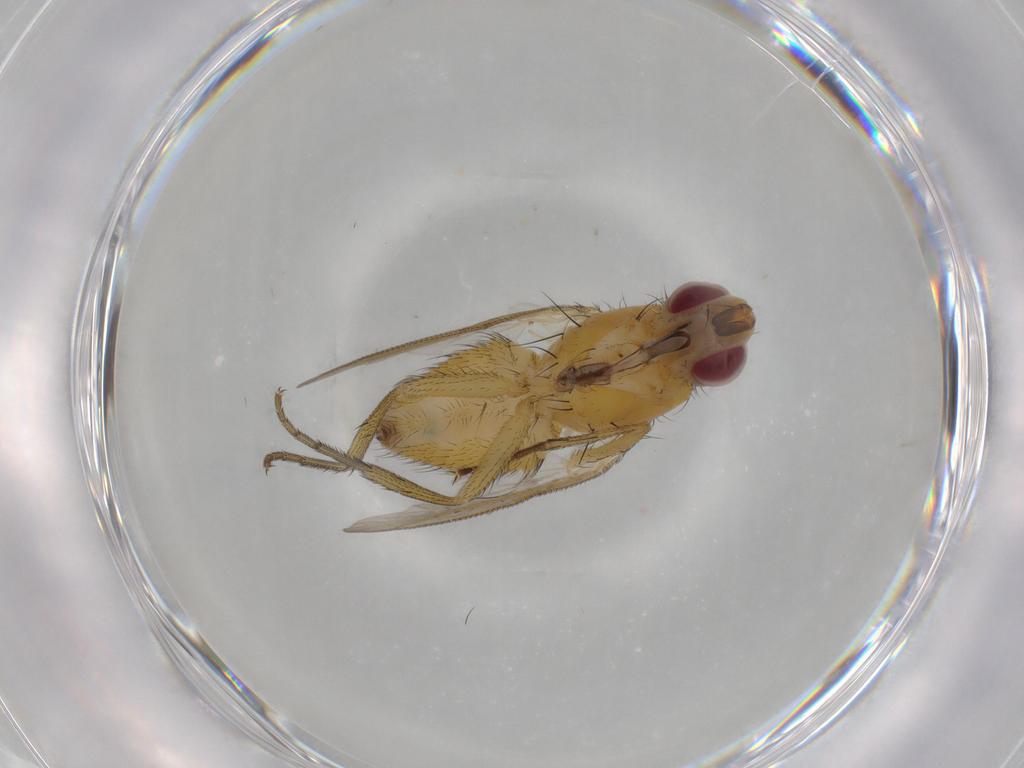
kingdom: Animalia
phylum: Arthropoda
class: Insecta
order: Diptera
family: Muscidae
